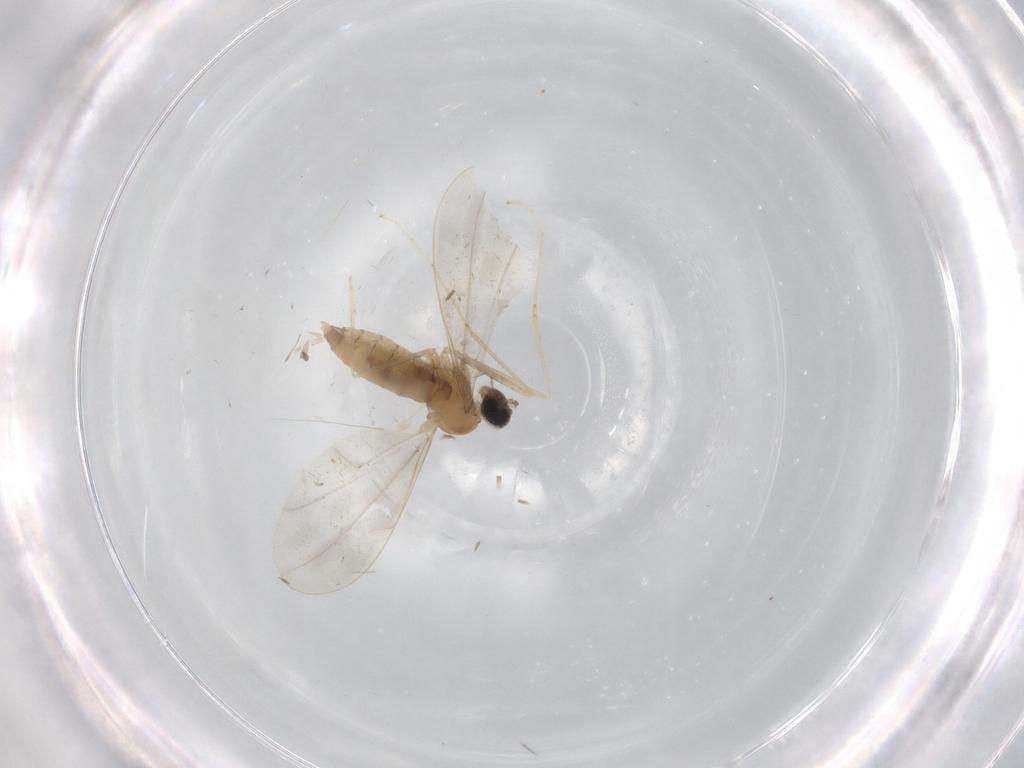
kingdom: Animalia
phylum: Arthropoda
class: Insecta
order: Diptera
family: Cecidomyiidae
